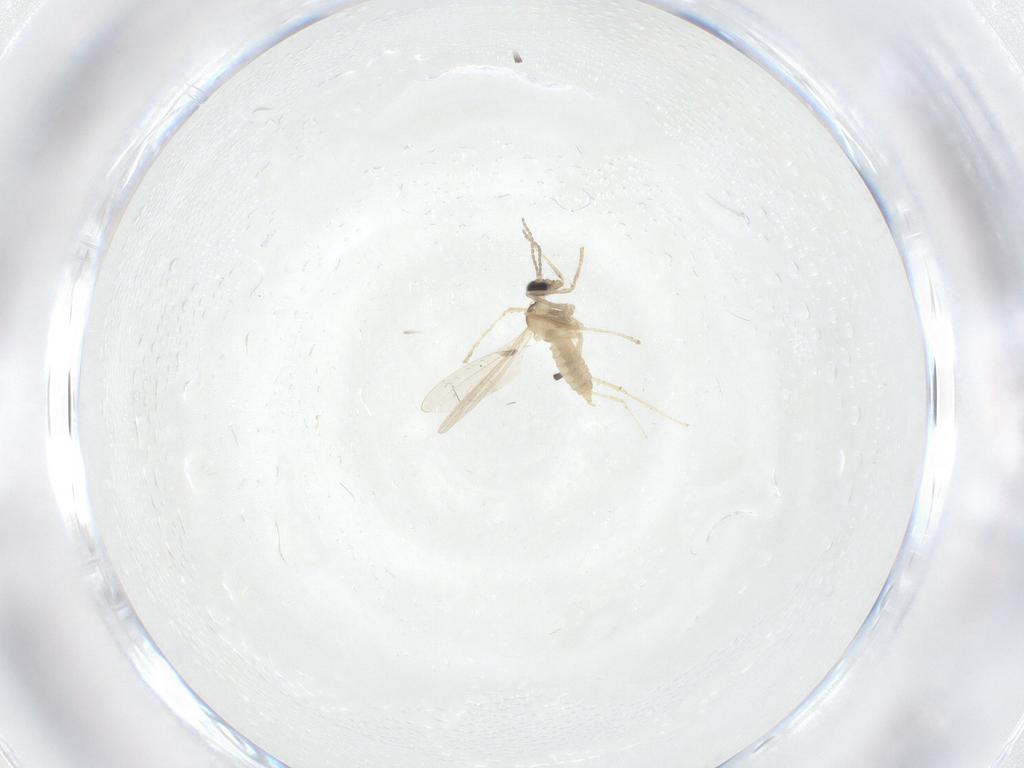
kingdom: Animalia
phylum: Arthropoda
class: Insecta
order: Diptera
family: Cecidomyiidae
